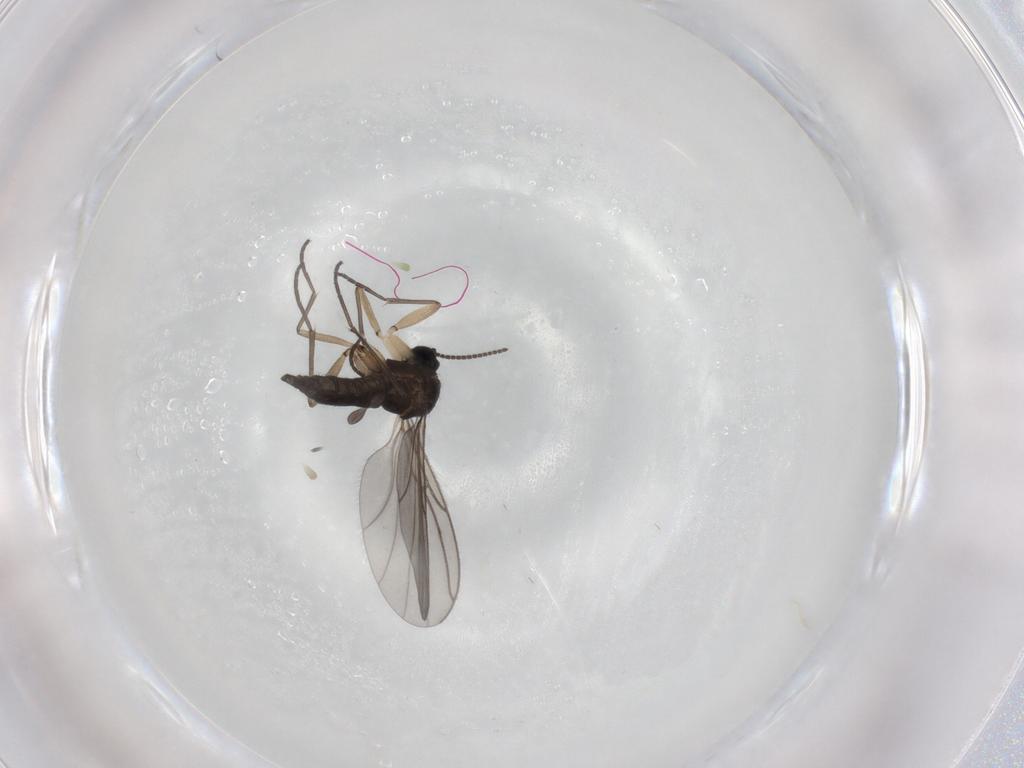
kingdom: Animalia
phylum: Arthropoda
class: Insecta
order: Diptera
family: Sciaridae
